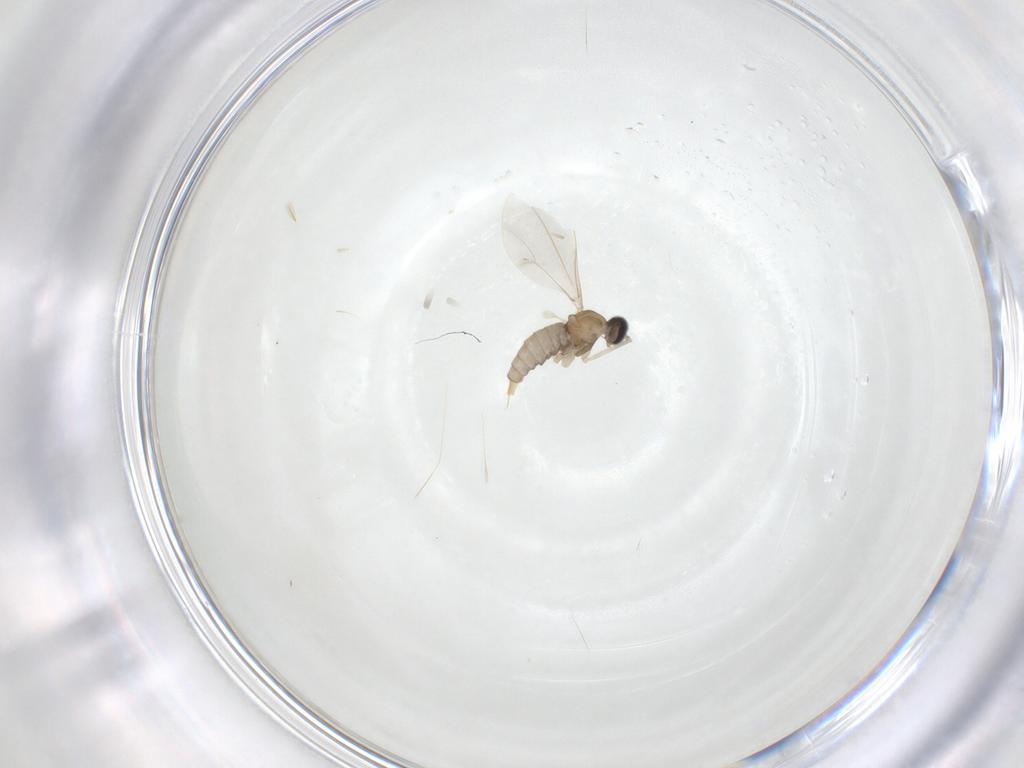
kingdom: Animalia
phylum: Arthropoda
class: Insecta
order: Diptera
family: Cecidomyiidae
